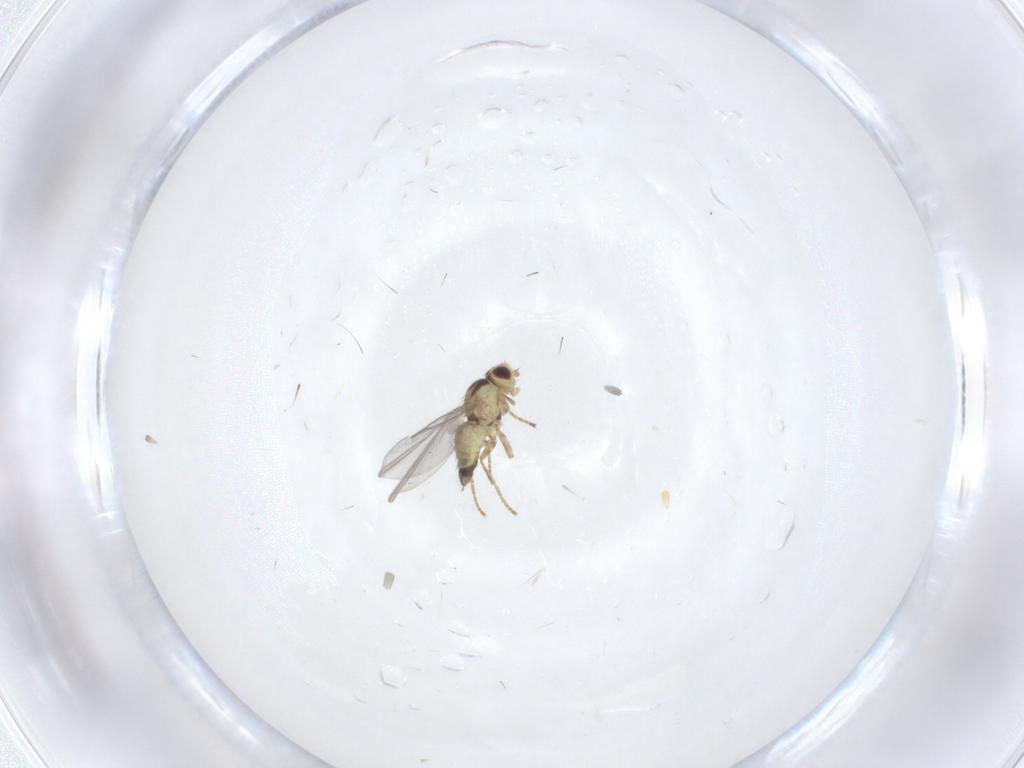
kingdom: Animalia
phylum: Arthropoda
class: Insecta
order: Diptera
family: Agromyzidae
